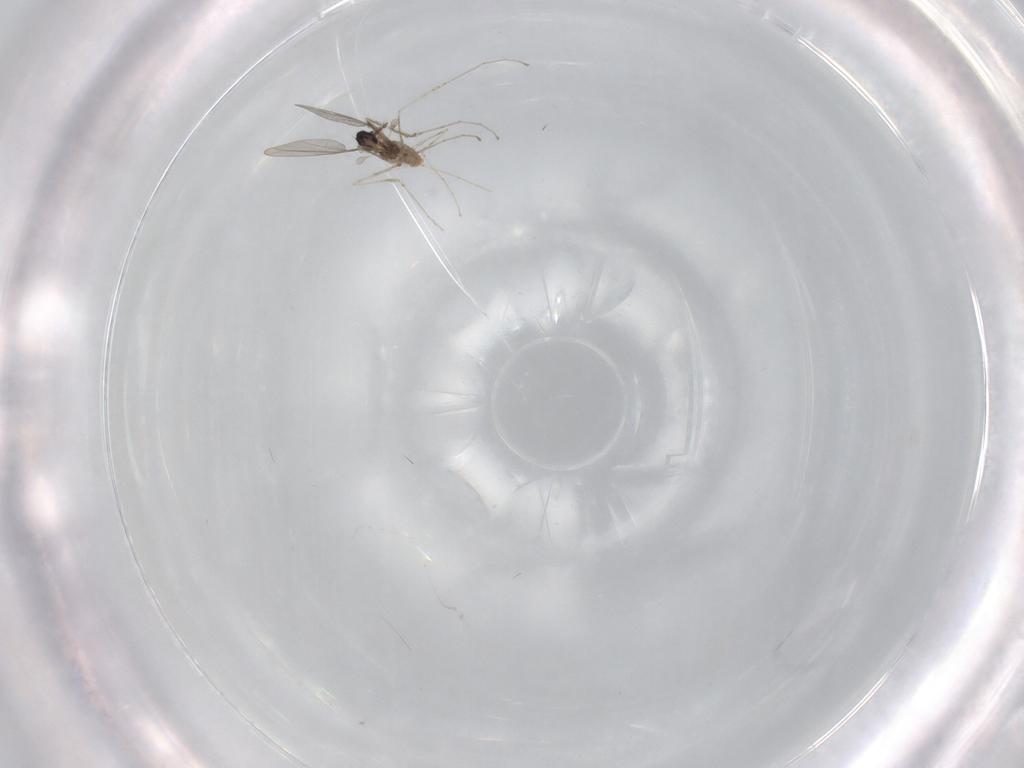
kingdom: Animalia
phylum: Arthropoda
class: Insecta
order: Diptera
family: Cecidomyiidae
